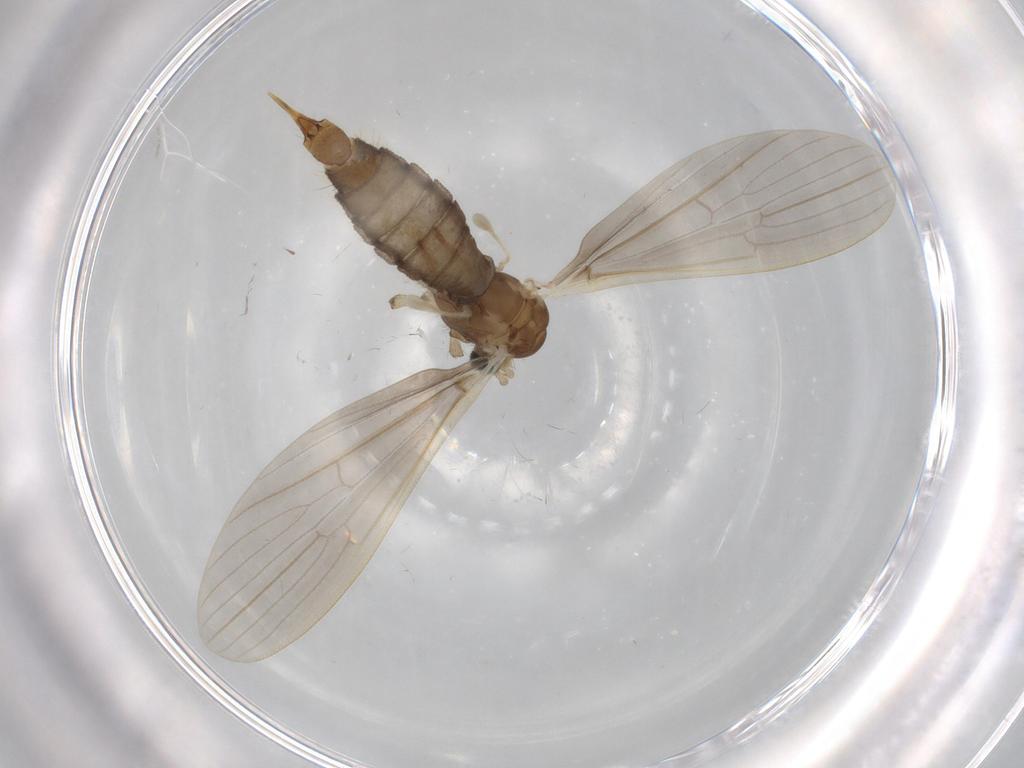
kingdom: Animalia
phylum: Arthropoda
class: Insecta
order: Diptera
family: Limoniidae
